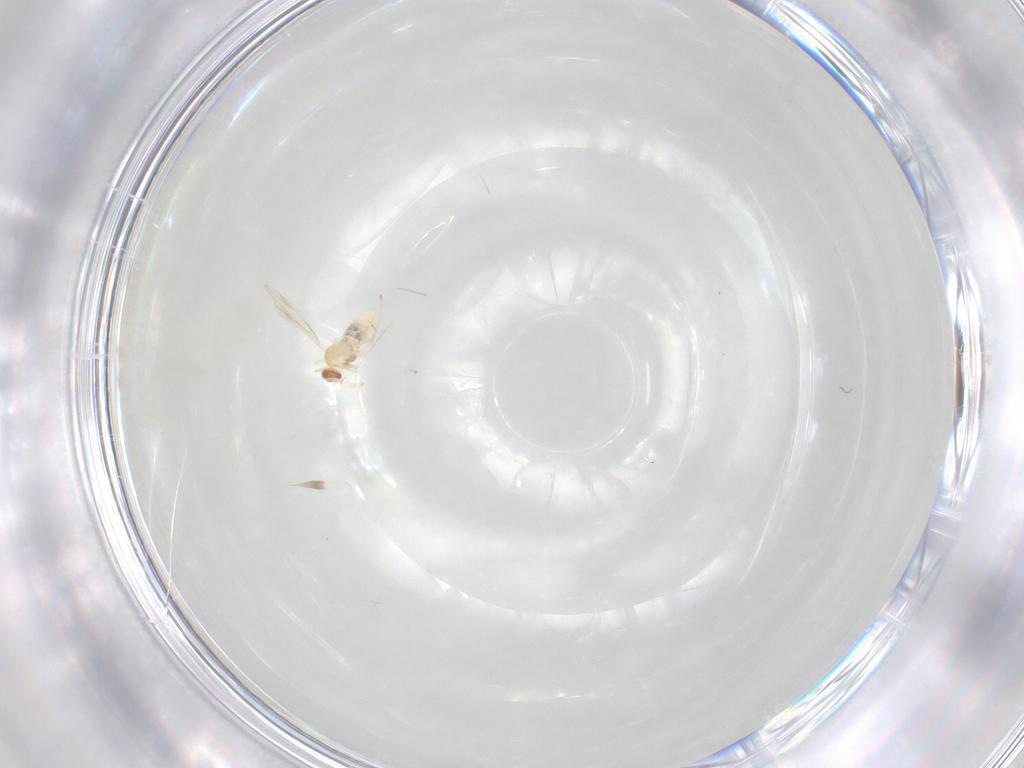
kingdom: Animalia
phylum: Arthropoda
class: Insecta
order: Diptera
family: Cecidomyiidae
